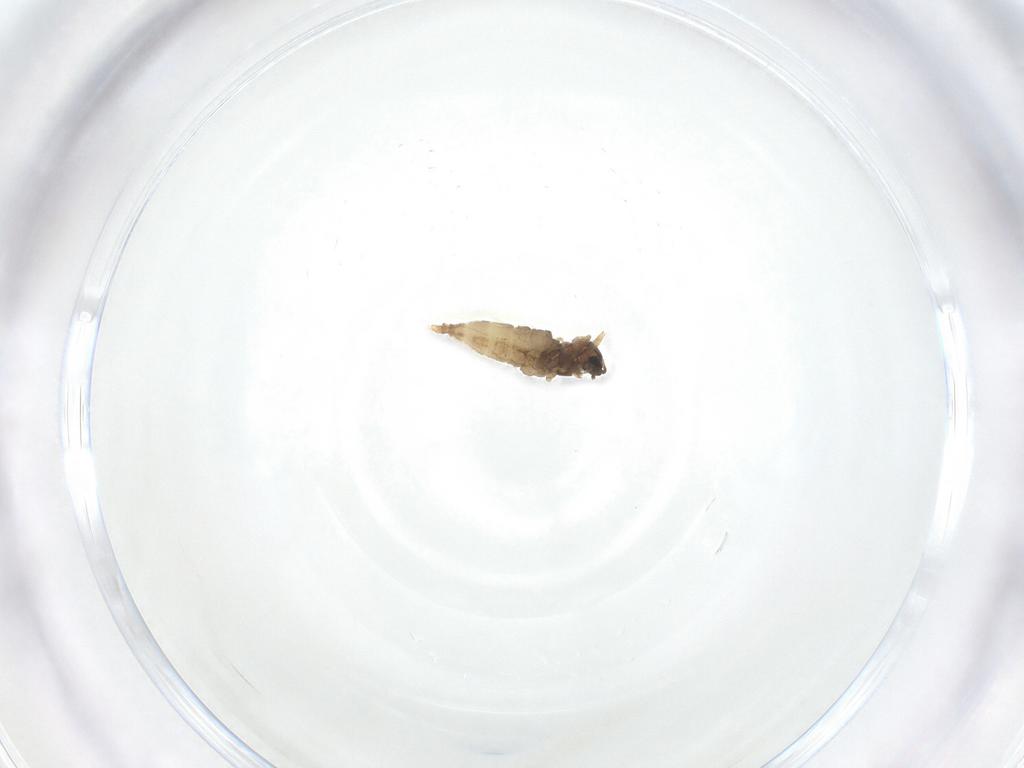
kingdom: Animalia
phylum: Arthropoda
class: Insecta
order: Diptera
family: Cecidomyiidae
